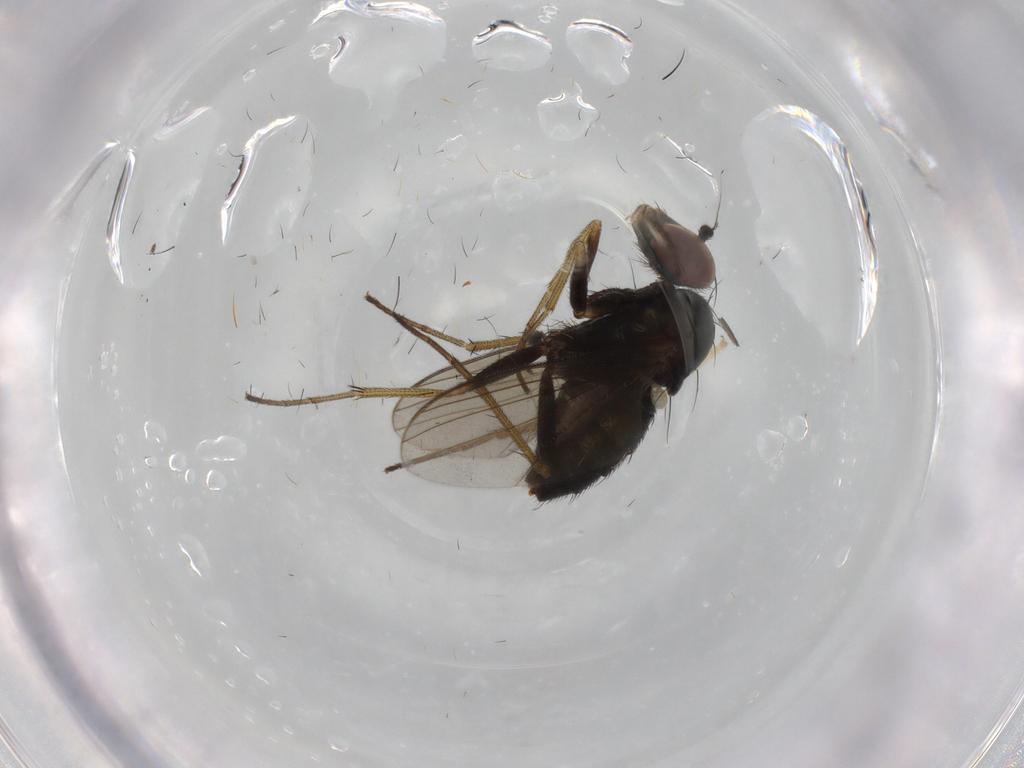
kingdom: Animalia
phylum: Arthropoda
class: Insecta
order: Diptera
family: Dolichopodidae
